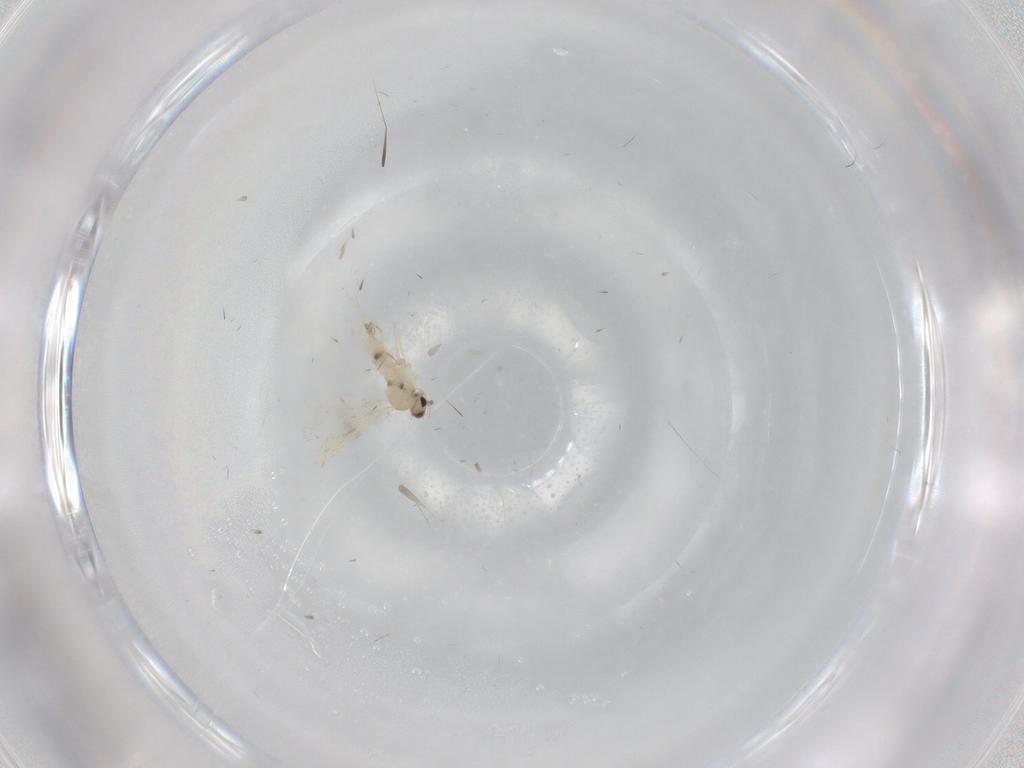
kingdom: Animalia
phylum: Arthropoda
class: Insecta
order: Diptera
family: Cecidomyiidae
